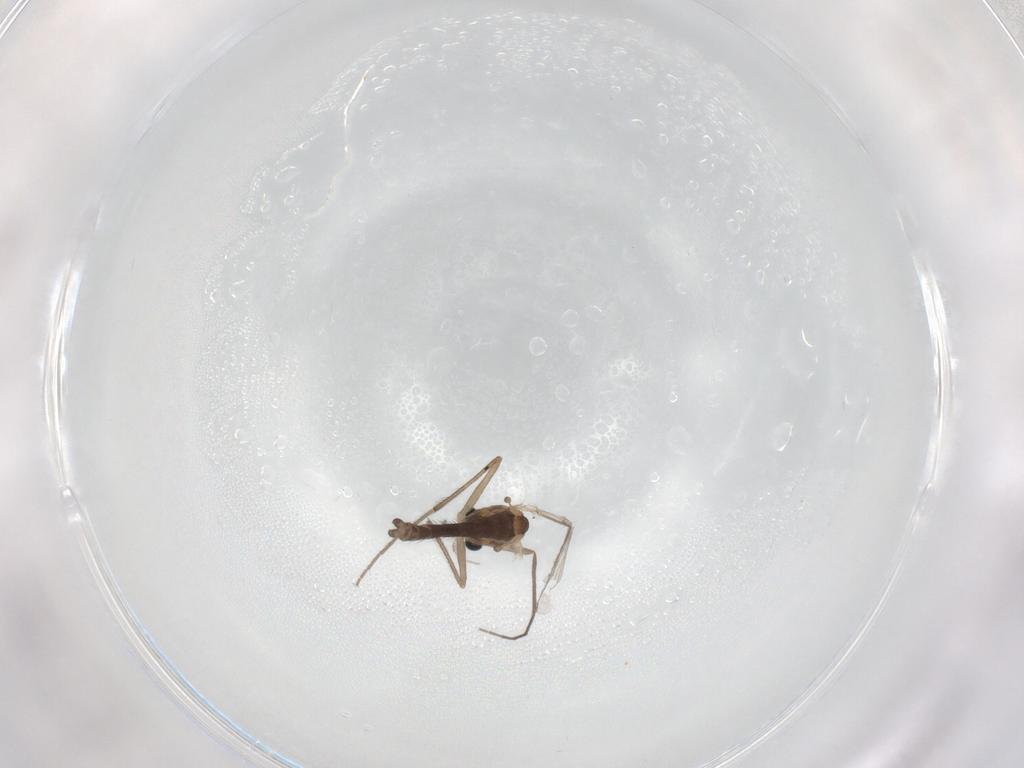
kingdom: Animalia
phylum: Arthropoda
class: Insecta
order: Diptera
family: Chironomidae
